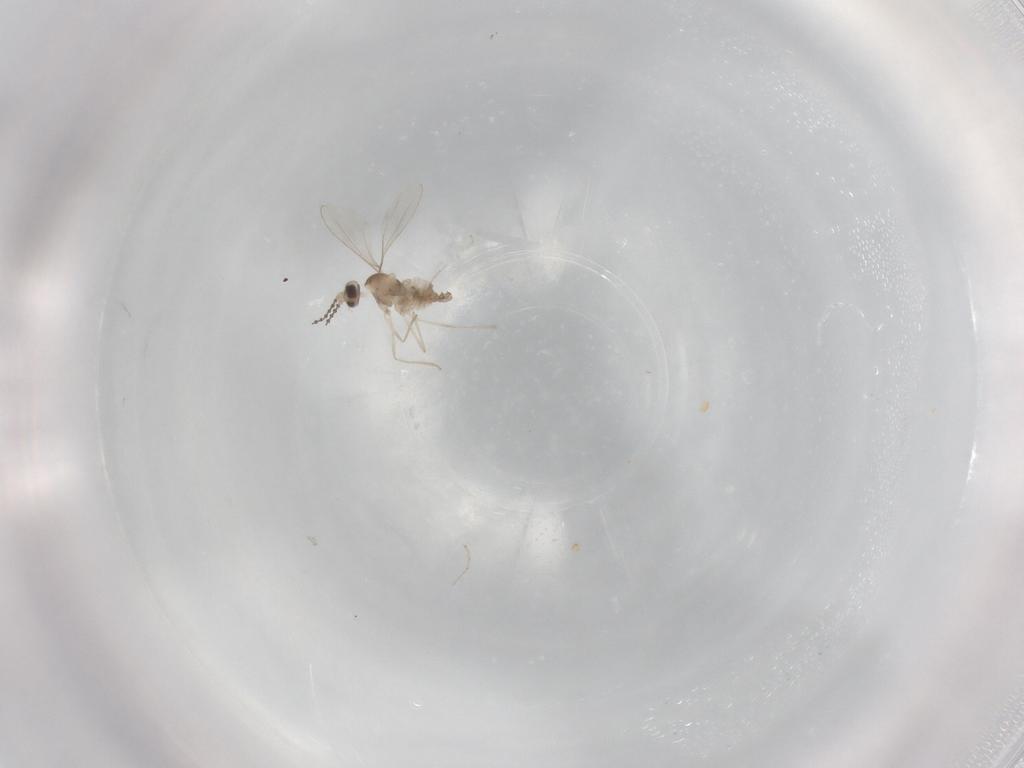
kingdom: Animalia
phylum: Arthropoda
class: Insecta
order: Diptera
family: Cecidomyiidae
